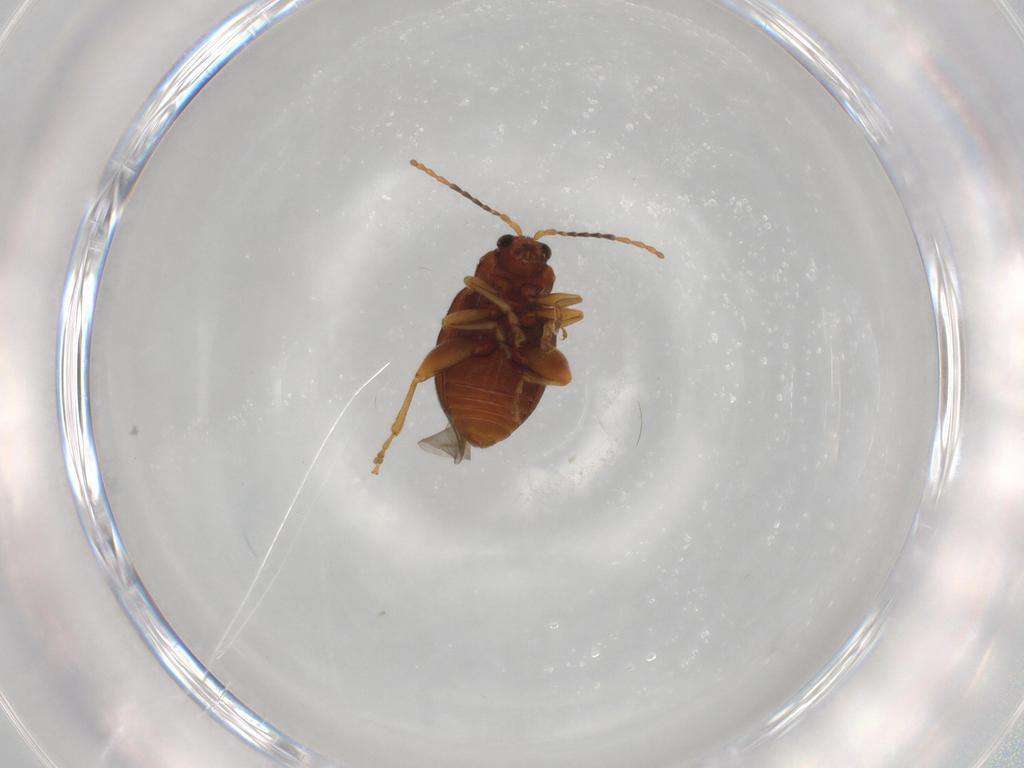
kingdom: Animalia
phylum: Arthropoda
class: Insecta
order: Coleoptera
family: Chrysomelidae
